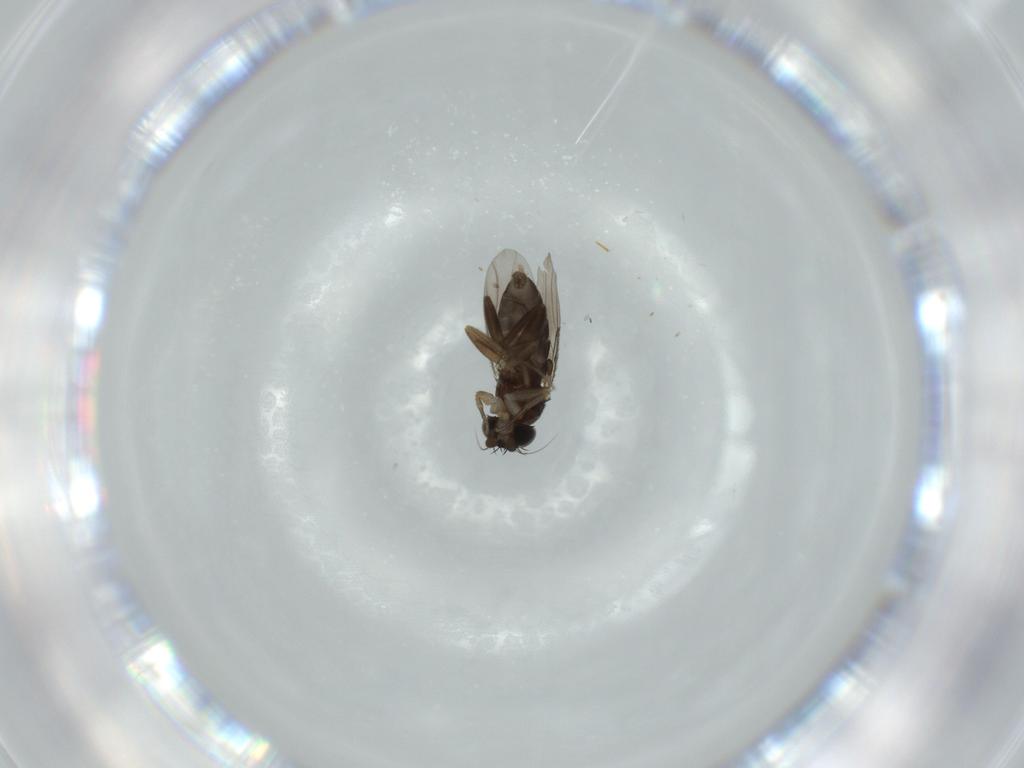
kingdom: Animalia
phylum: Arthropoda
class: Insecta
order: Diptera
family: Phoridae
